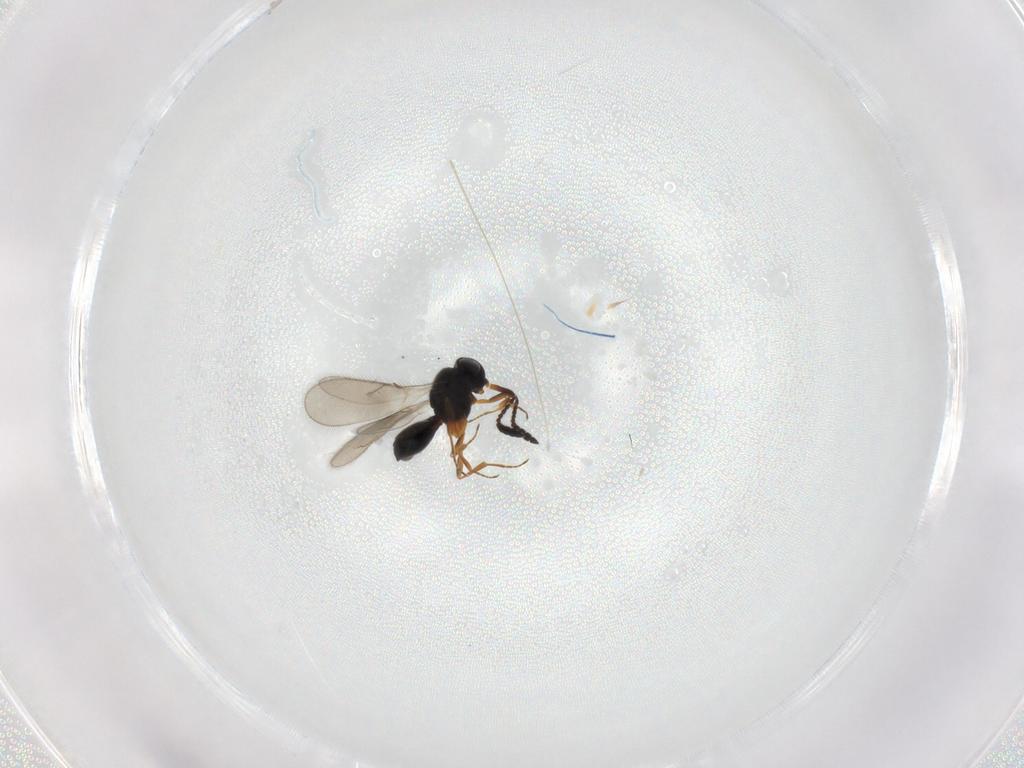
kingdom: Animalia
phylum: Arthropoda
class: Insecta
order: Hymenoptera
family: Scelionidae
